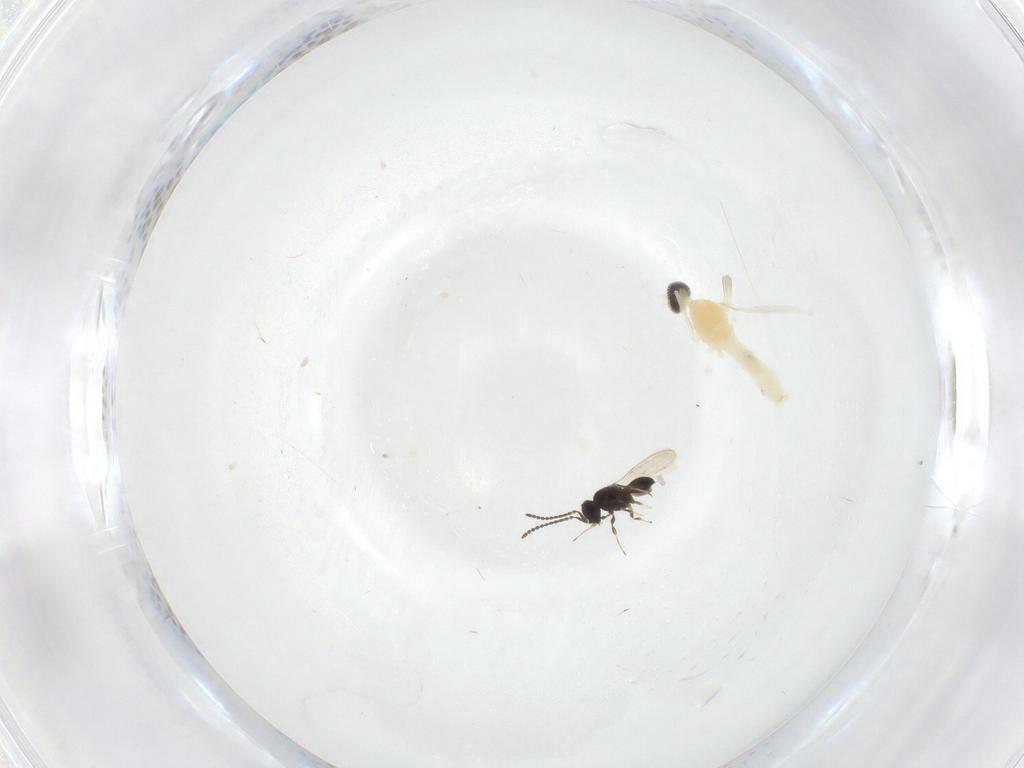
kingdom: Animalia
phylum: Arthropoda
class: Insecta
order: Hymenoptera
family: Scelionidae
